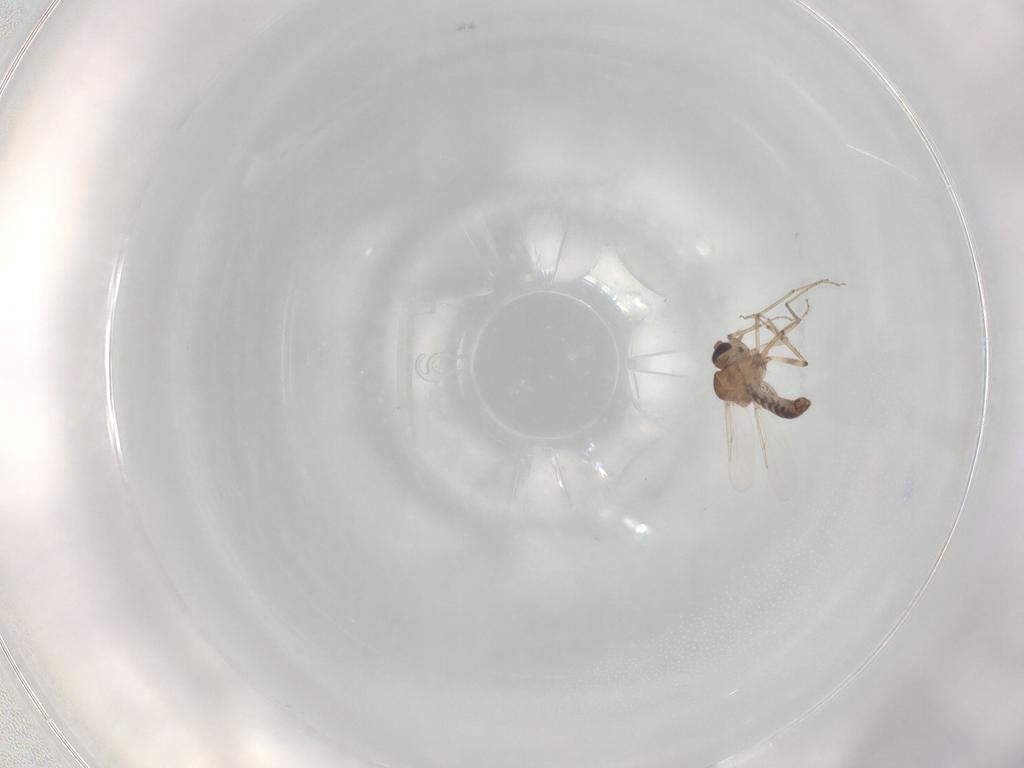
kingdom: Animalia
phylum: Arthropoda
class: Insecta
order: Diptera
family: Ceratopogonidae
